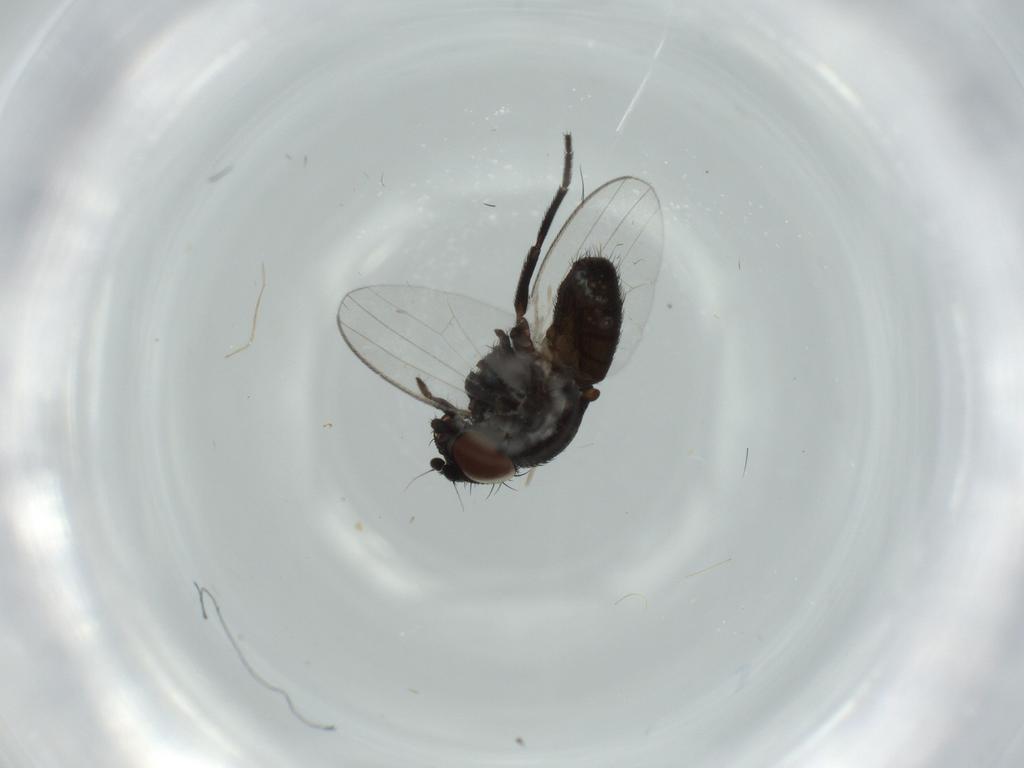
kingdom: Animalia
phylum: Arthropoda
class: Insecta
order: Diptera
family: Milichiidae
